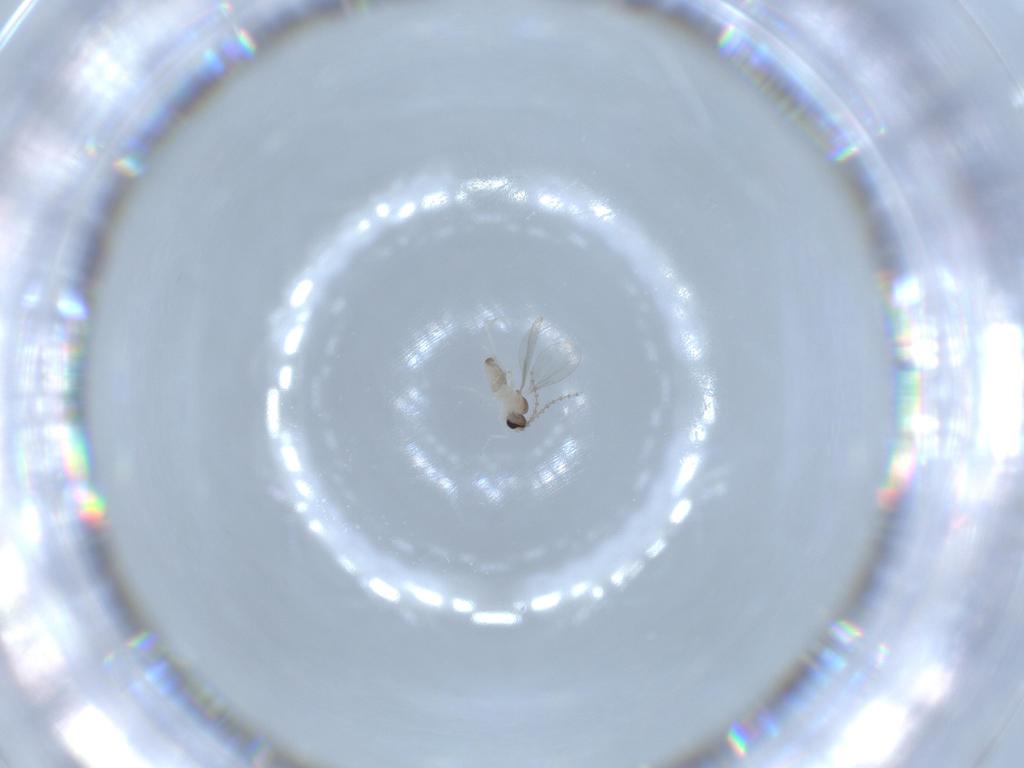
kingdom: Animalia
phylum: Arthropoda
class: Insecta
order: Diptera
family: Cecidomyiidae
